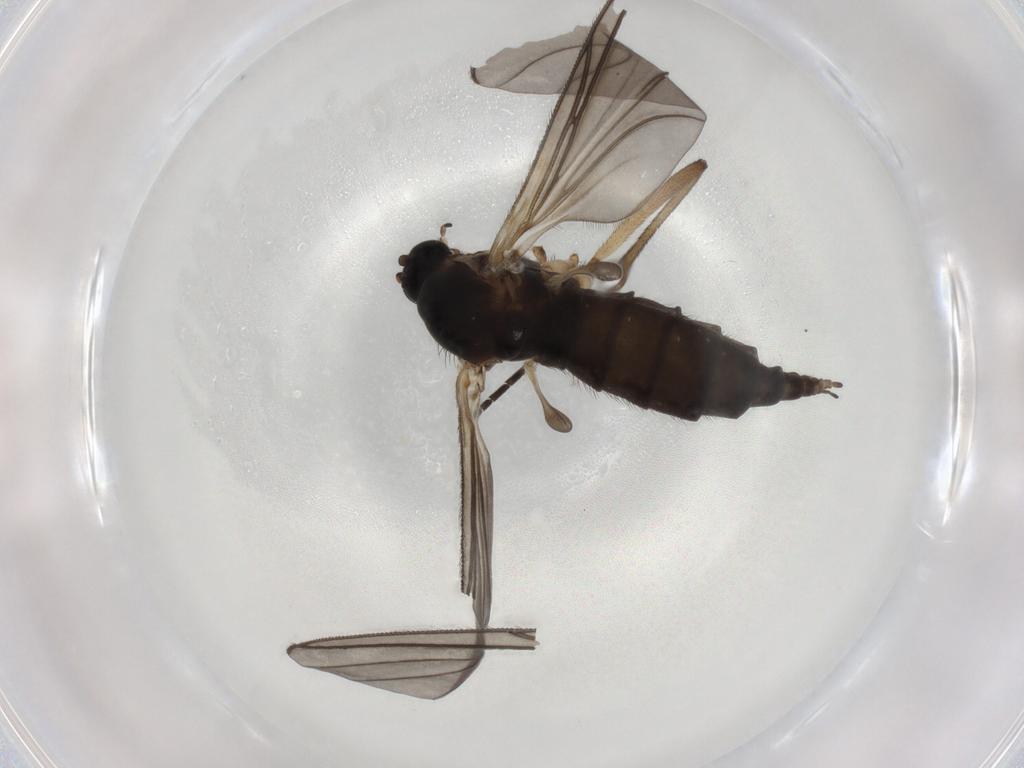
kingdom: Animalia
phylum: Arthropoda
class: Insecta
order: Diptera
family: Sciaridae
